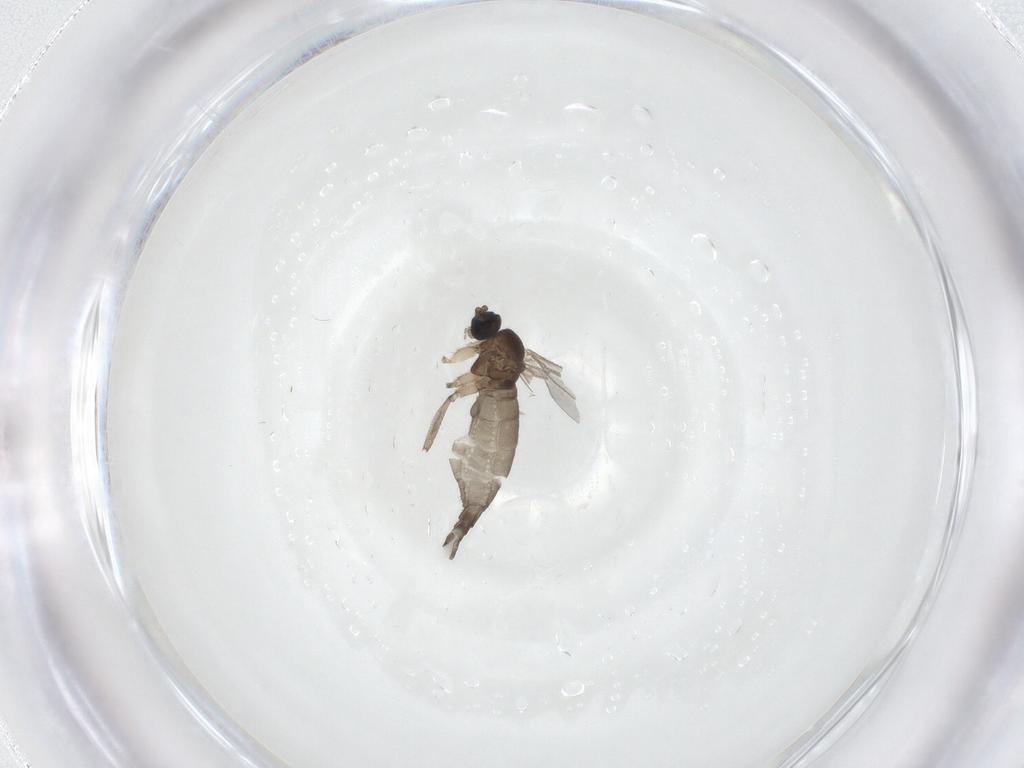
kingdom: Animalia
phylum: Arthropoda
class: Insecta
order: Diptera
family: Sciaridae
